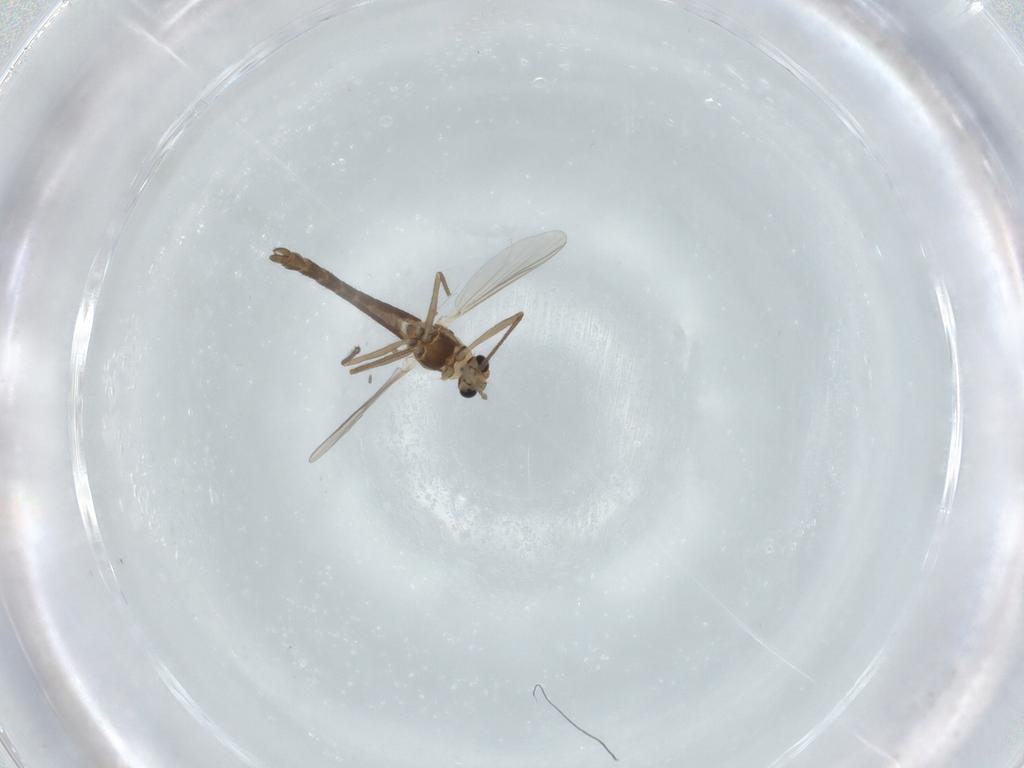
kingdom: Animalia
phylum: Arthropoda
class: Insecta
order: Diptera
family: Chironomidae
